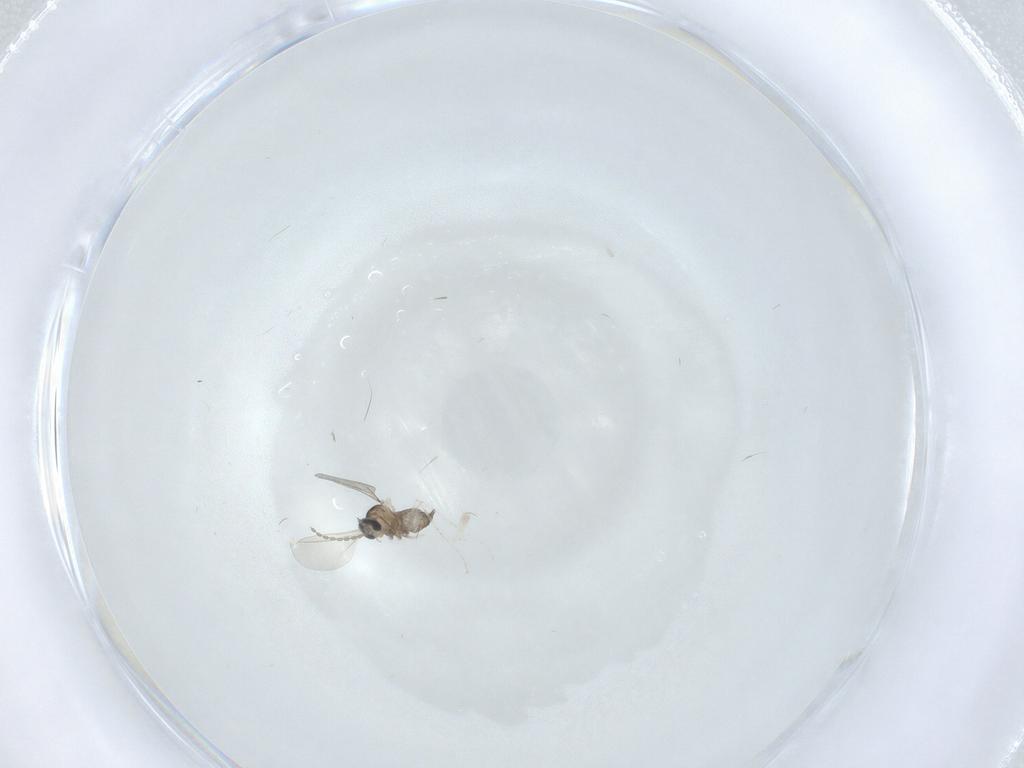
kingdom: Animalia
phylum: Arthropoda
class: Insecta
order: Diptera
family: Cecidomyiidae
